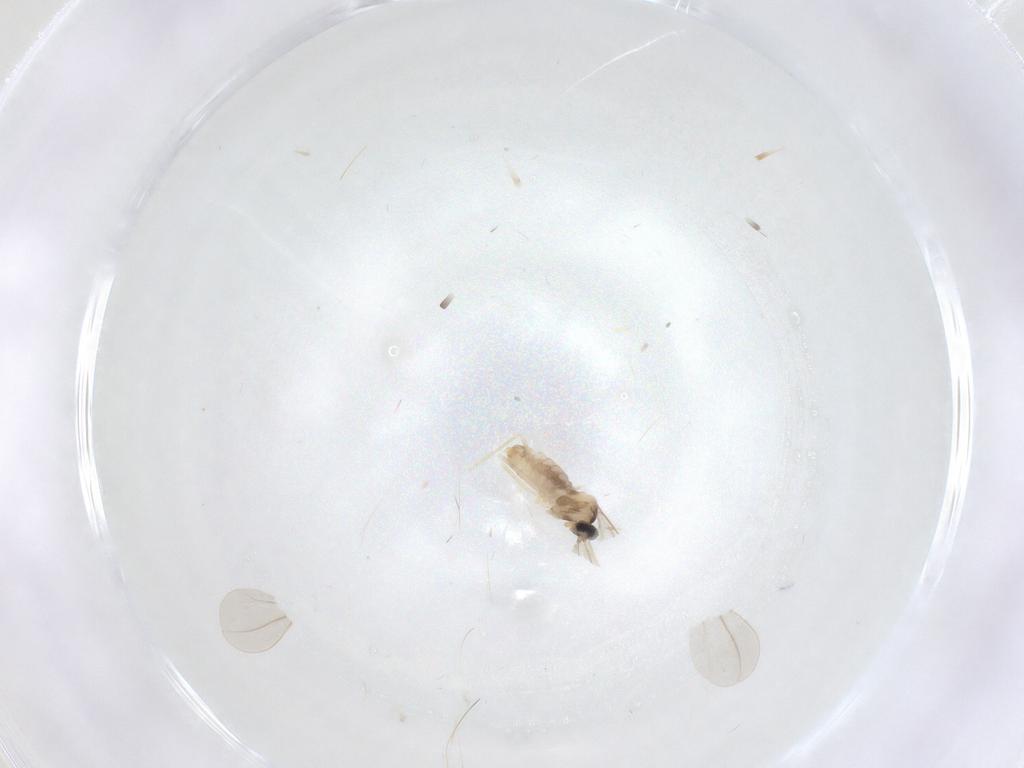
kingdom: Animalia
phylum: Arthropoda
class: Insecta
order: Diptera
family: Cecidomyiidae
